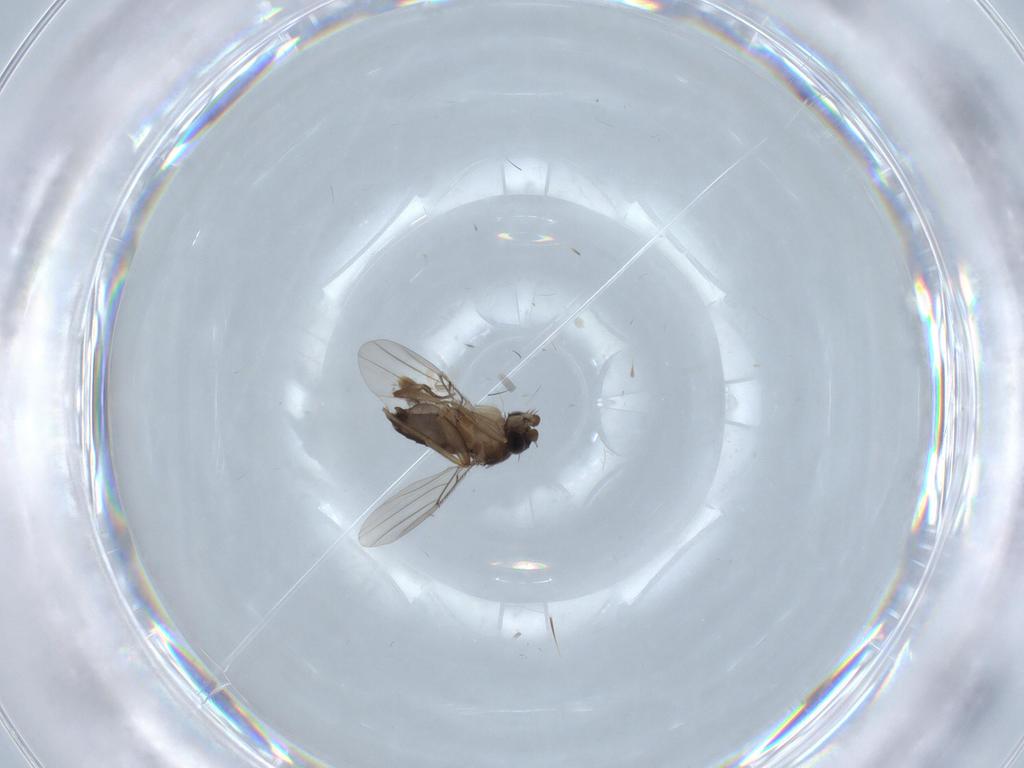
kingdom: Animalia
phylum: Arthropoda
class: Insecta
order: Diptera
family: Phoridae
